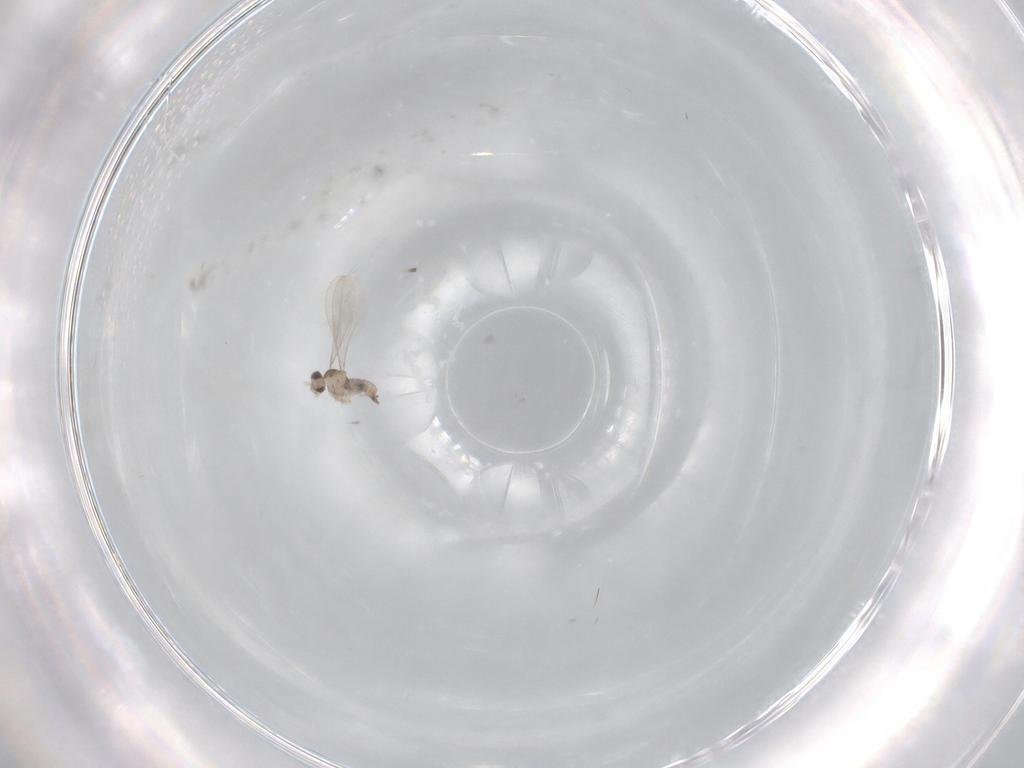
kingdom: Animalia
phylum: Arthropoda
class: Insecta
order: Diptera
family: Cecidomyiidae
